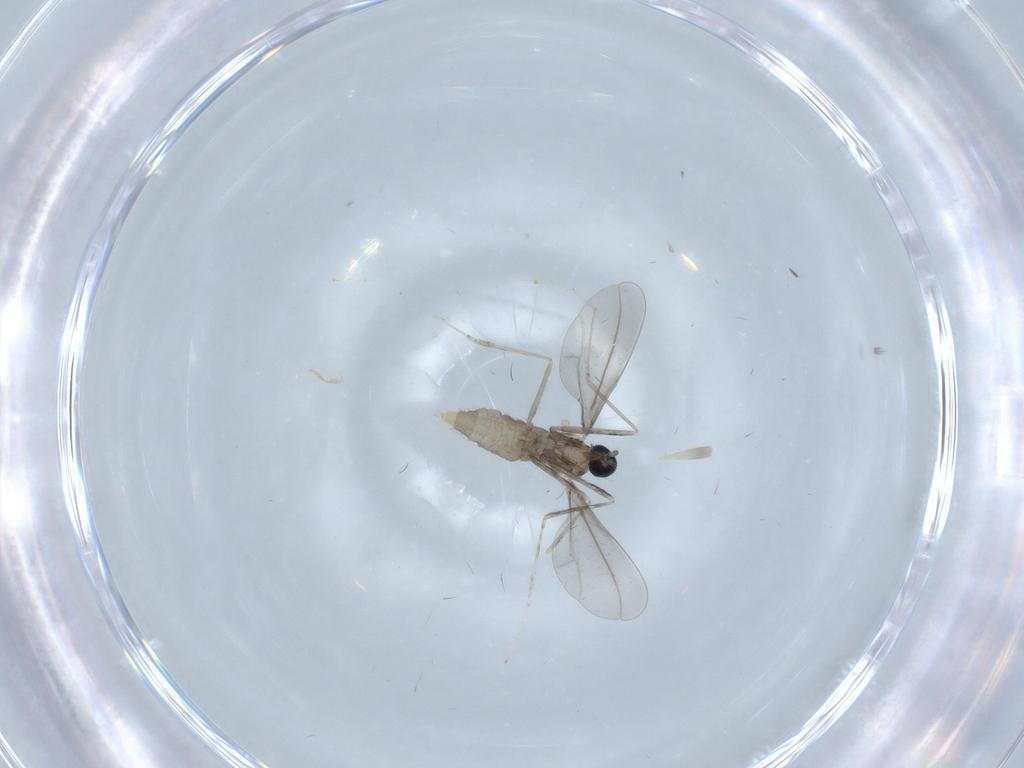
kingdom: Animalia
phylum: Arthropoda
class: Insecta
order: Diptera
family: Cecidomyiidae
